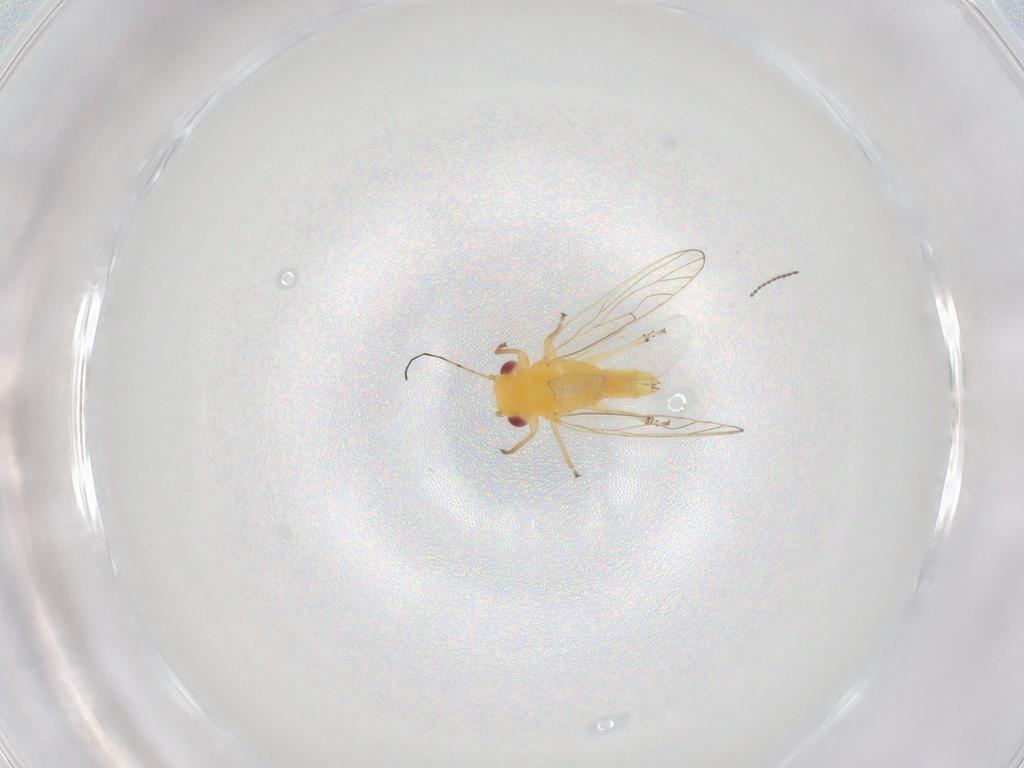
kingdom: Animalia
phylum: Arthropoda
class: Insecta
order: Hemiptera
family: Psyllidae
